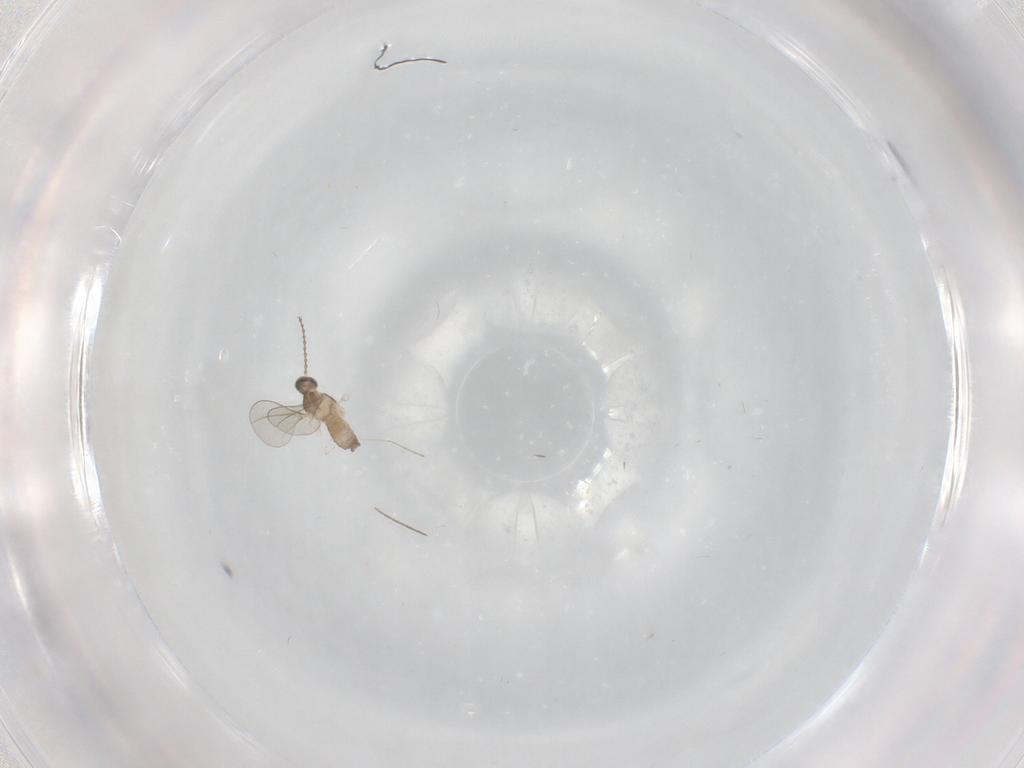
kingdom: Animalia
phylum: Arthropoda
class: Insecta
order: Diptera
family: Cecidomyiidae
